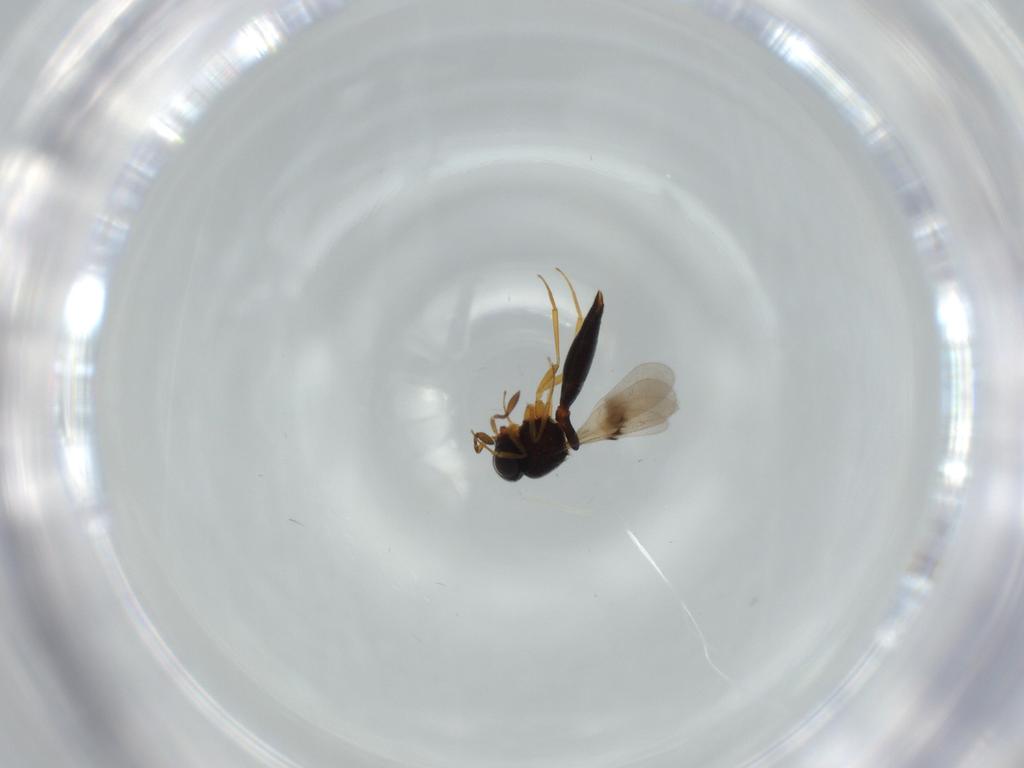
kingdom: Animalia
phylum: Arthropoda
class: Insecta
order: Hymenoptera
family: Scelionidae
